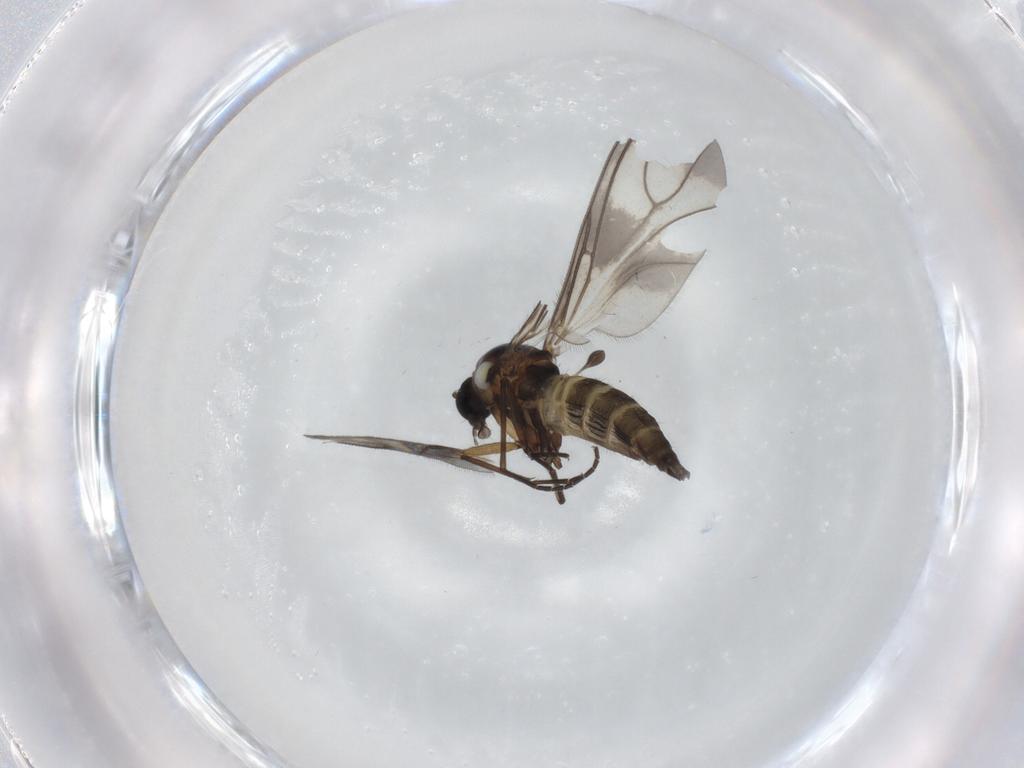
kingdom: Animalia
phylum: Arthropoda
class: Insecta
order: Diptera
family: Sciaridae
